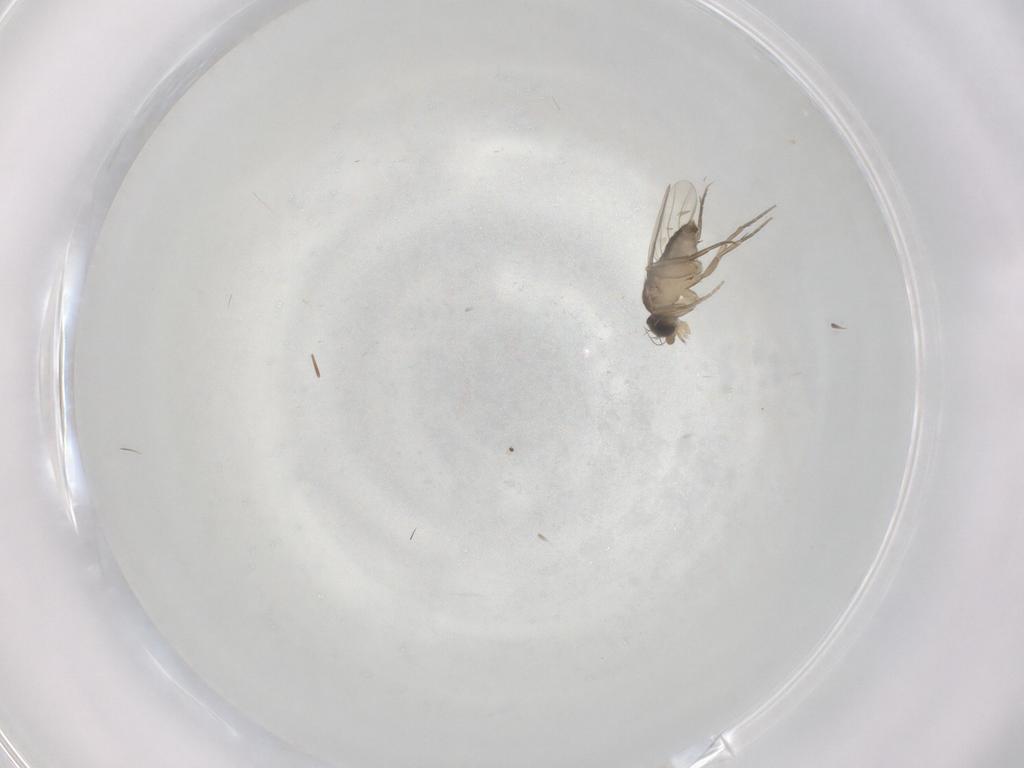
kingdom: Animalia
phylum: Arthropoda
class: Insecta
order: Diptera
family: Phoridae
